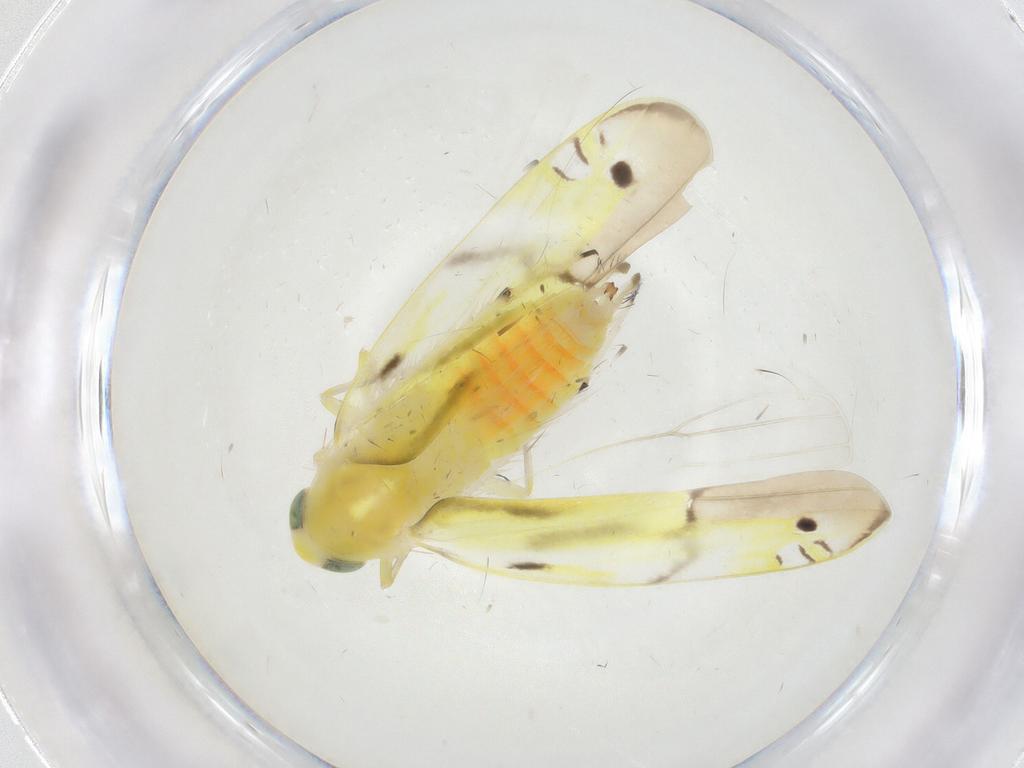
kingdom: Animalia
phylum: Arthropoda
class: Insecta
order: Hemiptera
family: Cicadellidae
